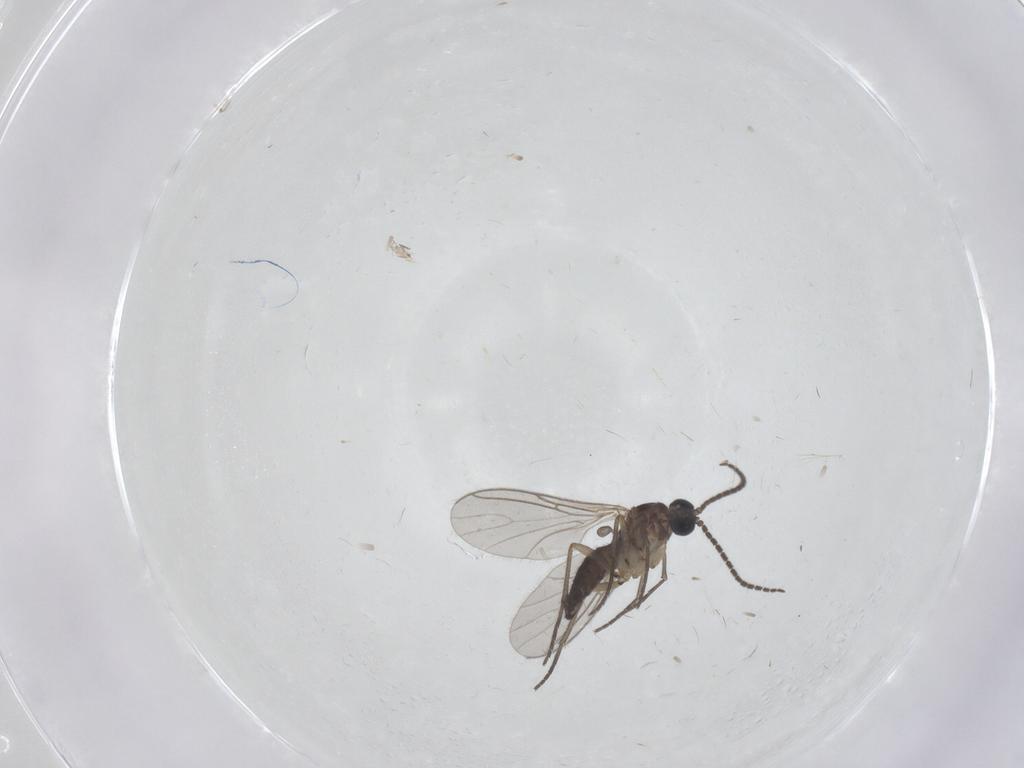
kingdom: Animalia
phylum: Arthropoda
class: Insecta
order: Diptera
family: Sciaridae
